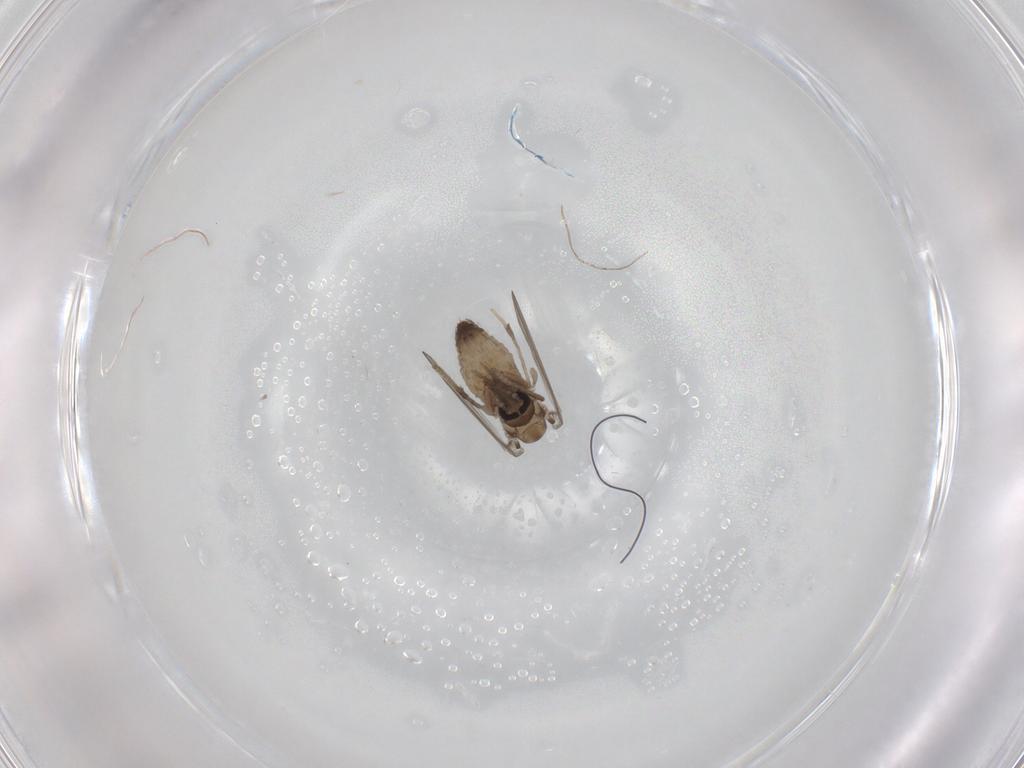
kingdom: Animalia
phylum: Arthropoda
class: Insecta
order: Diptera
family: Psychodidae
